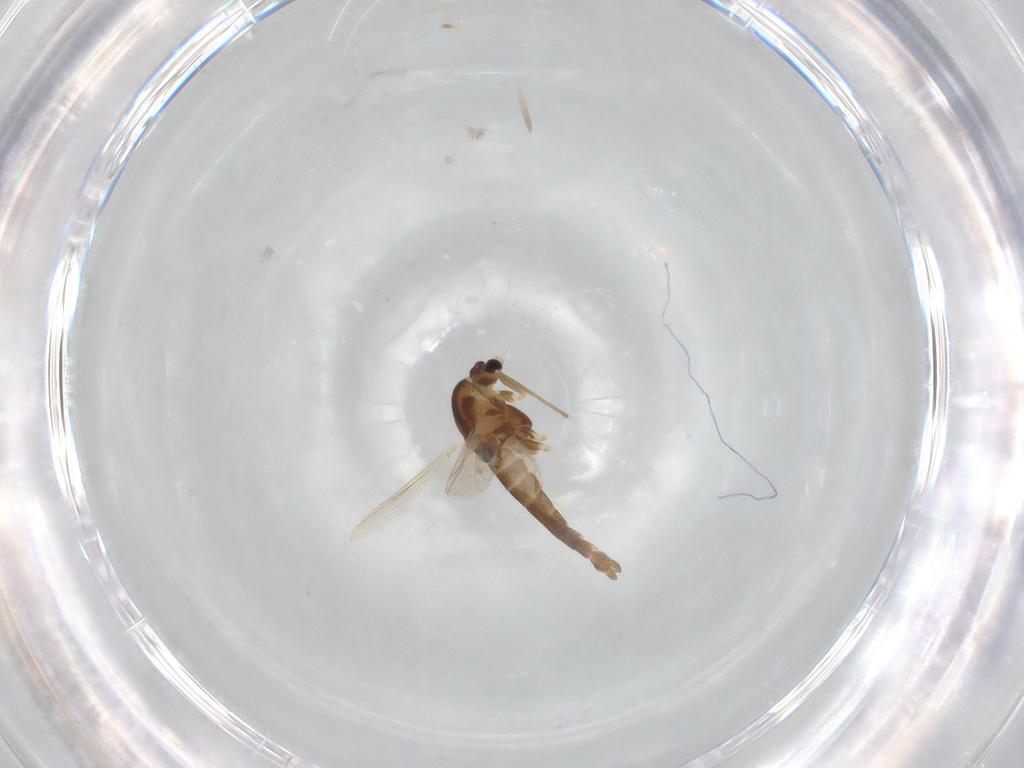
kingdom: Animalia
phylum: Arthropoda
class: Insecta
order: Diptera
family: Chironomidae
